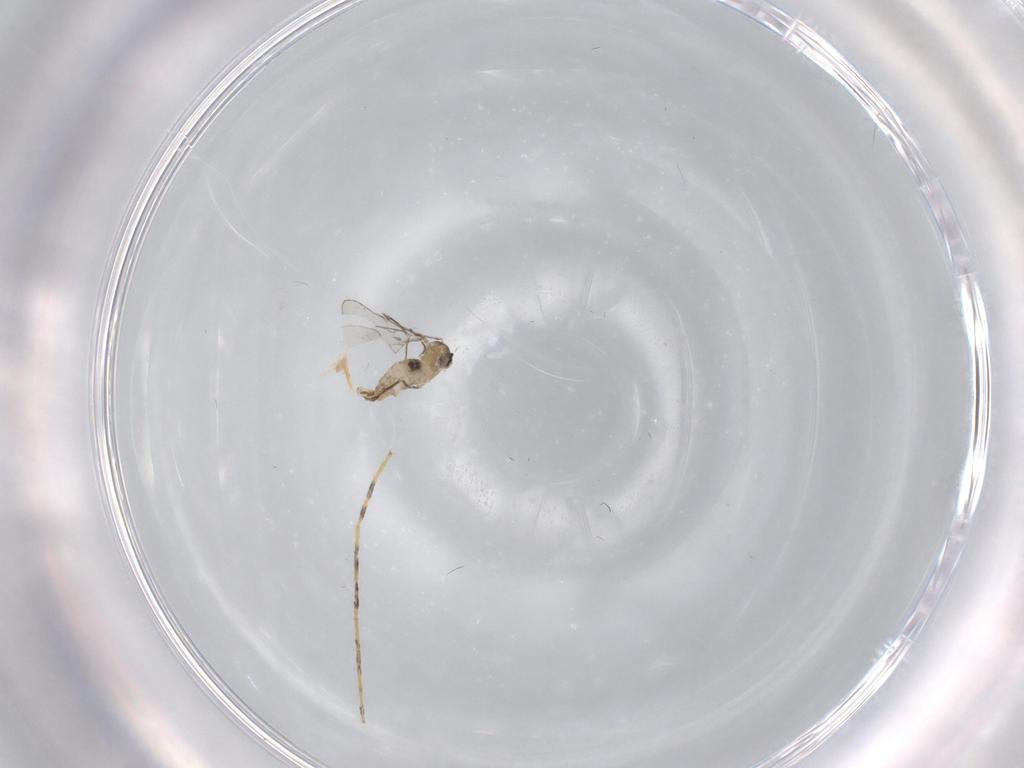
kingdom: Animalia
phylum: Arthropoda
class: Insecta
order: Diptera
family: Cecidomyiidae
